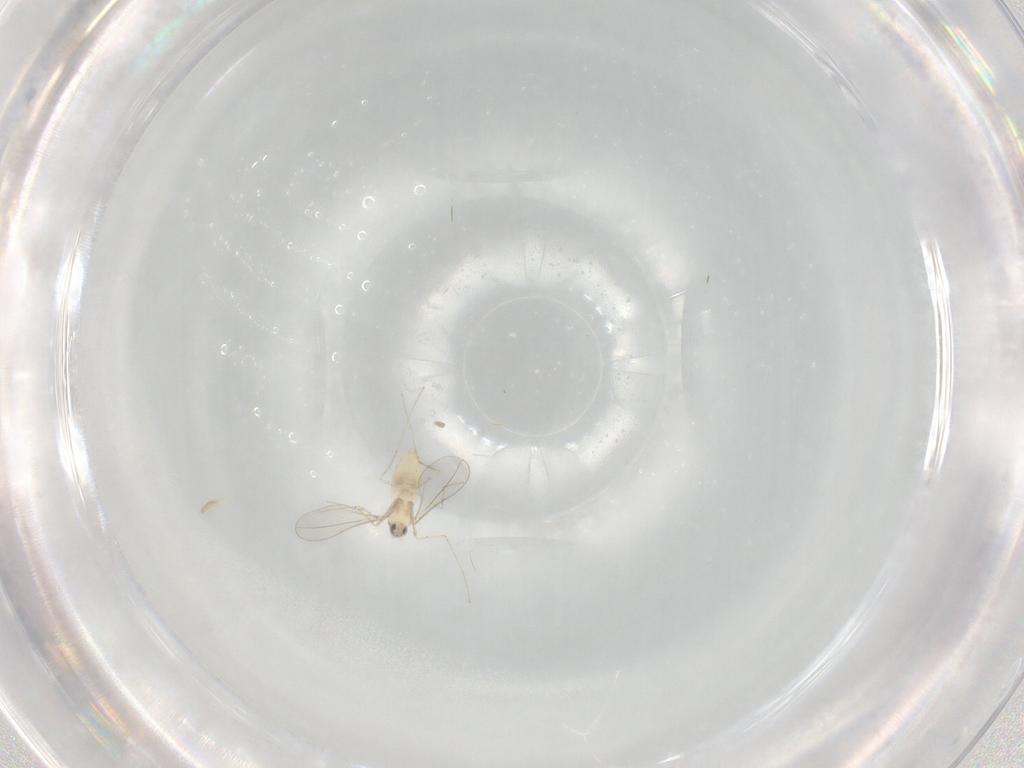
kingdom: Animalia
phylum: Arthropoda
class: Insecta
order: Diptera
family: Cecidomyiidae
